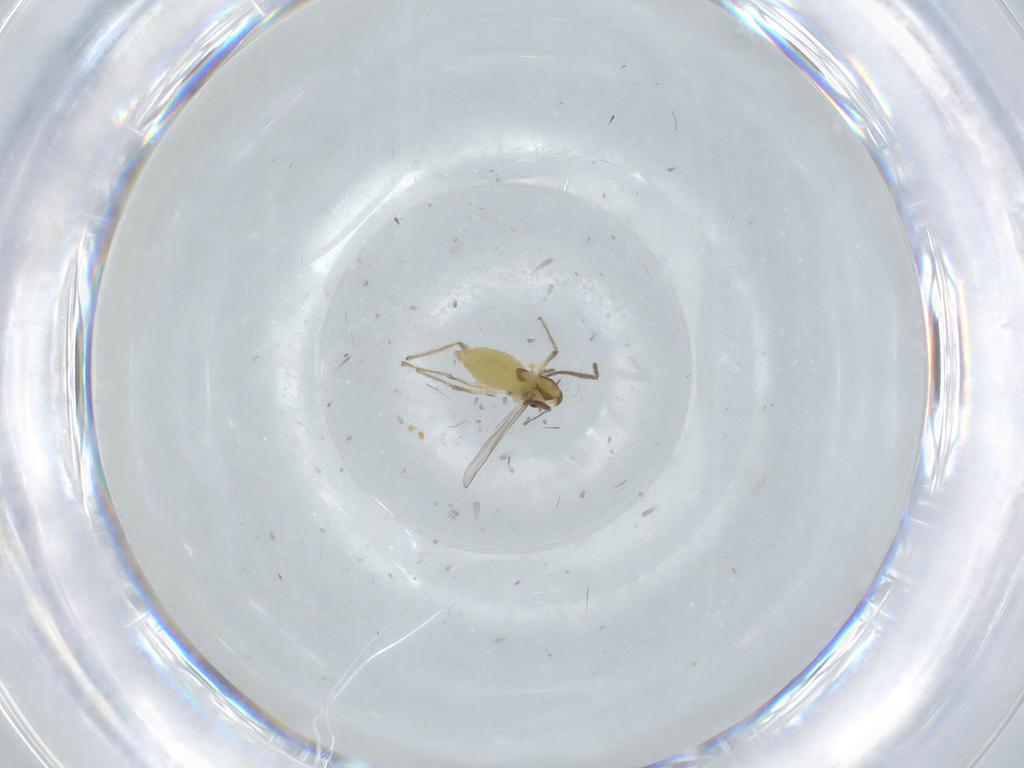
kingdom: Animalia
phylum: Arthropoda
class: Insecta
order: Diptera
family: Chironomidae
